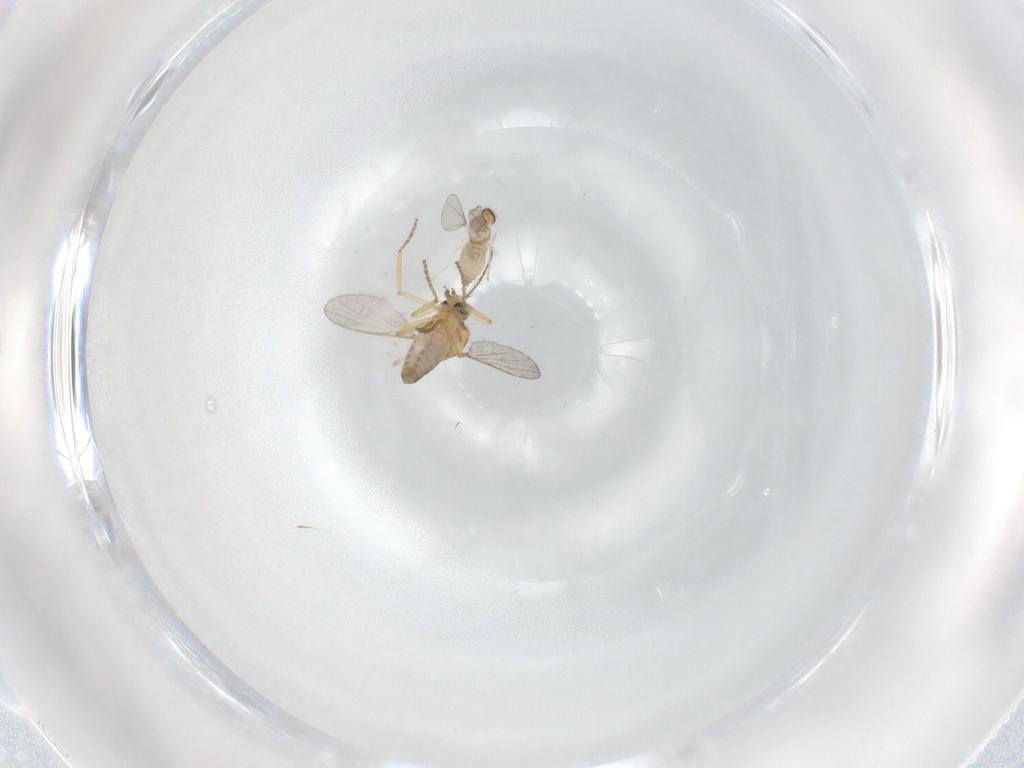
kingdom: Animalia
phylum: Arthropoda
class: Insecta
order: Diptera
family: Ceratopogonidae
